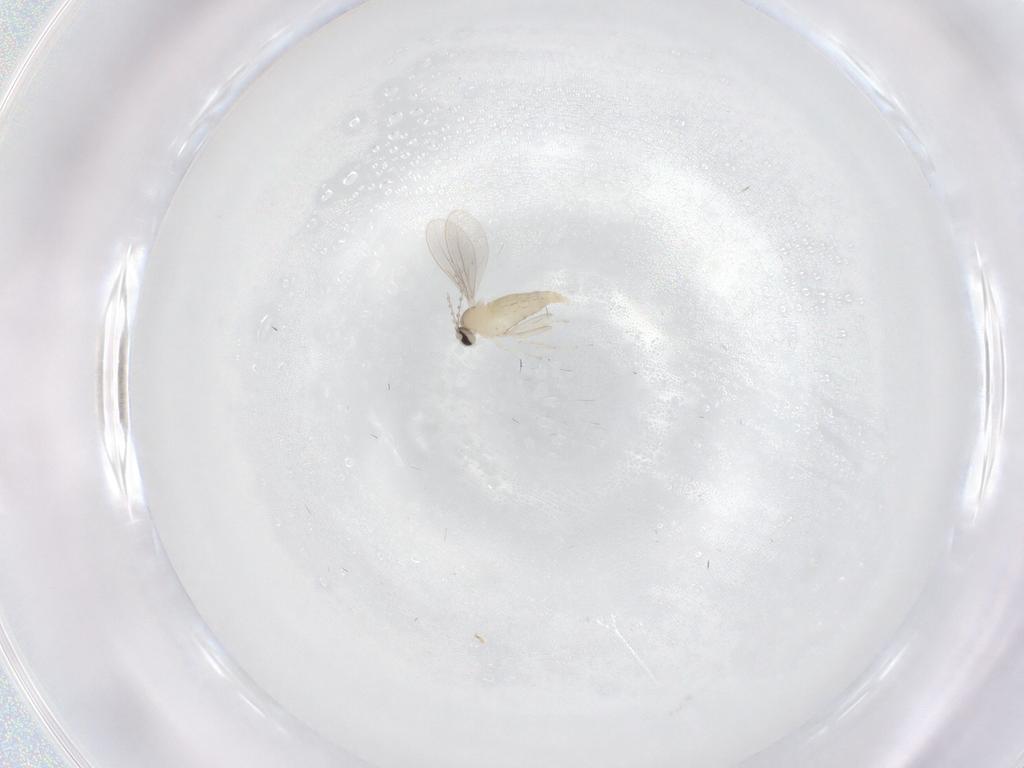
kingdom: Animalia
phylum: Arthropoda
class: Insecta
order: Diptera
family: Cecidomyiidae
